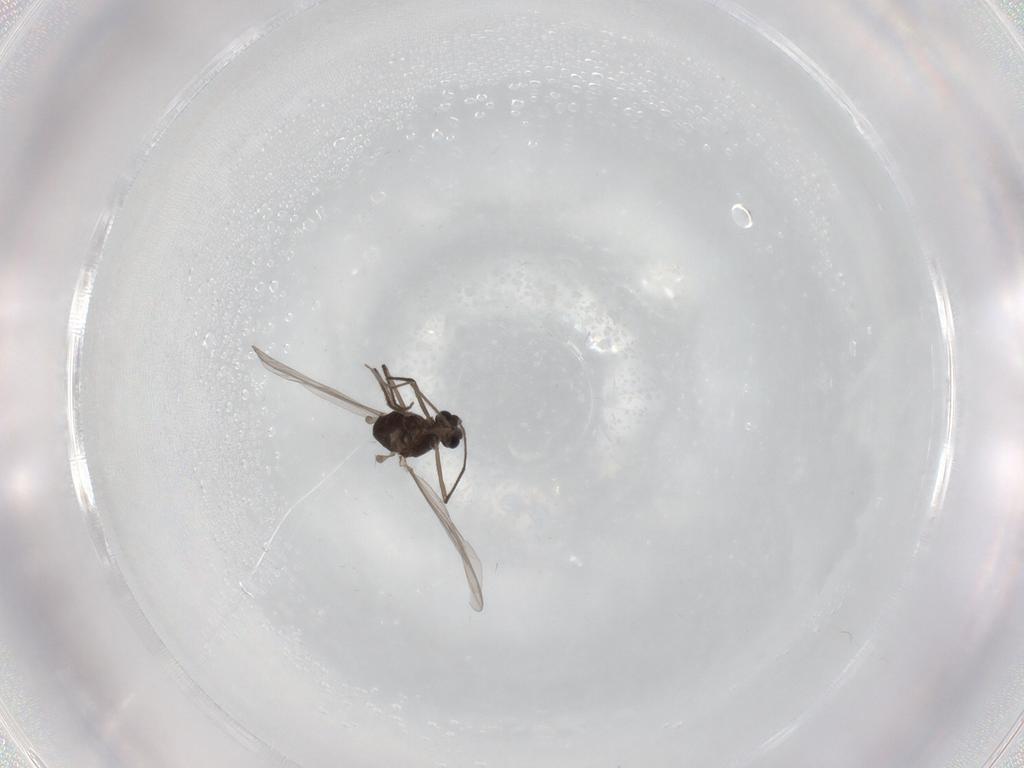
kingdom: Animalia
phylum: Arthropoda
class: Insecta
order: Diptera
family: Chironomidae
